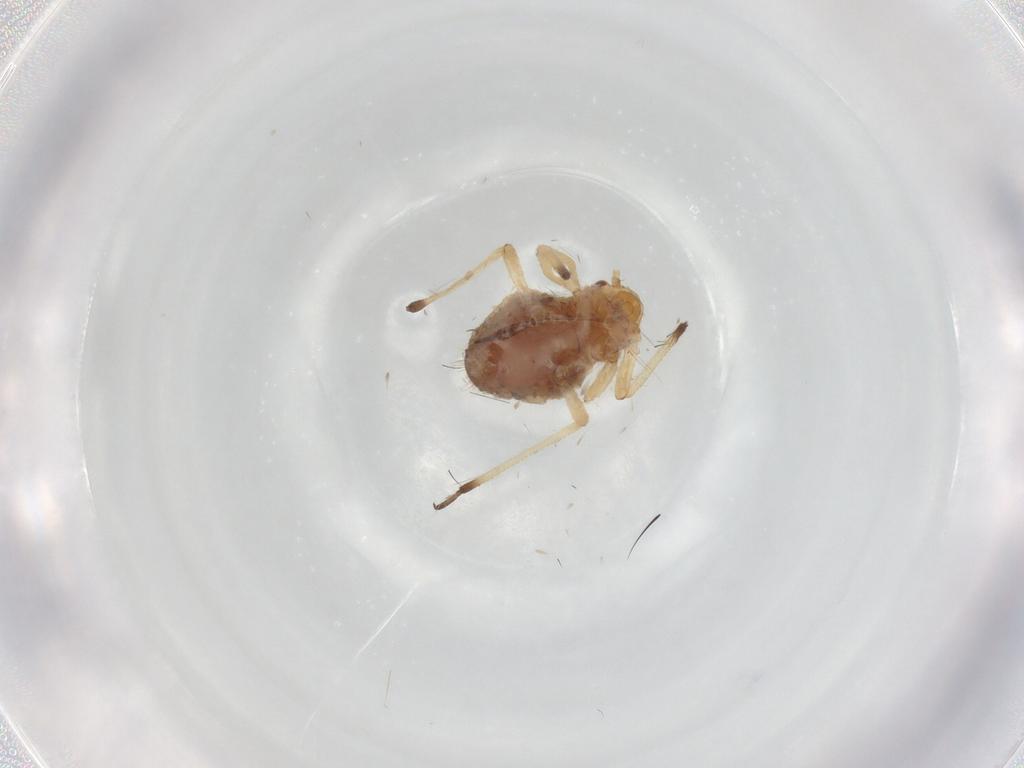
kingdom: Animalia
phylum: Arthropoda
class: Insecta
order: Hemiptera
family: Aphididae
